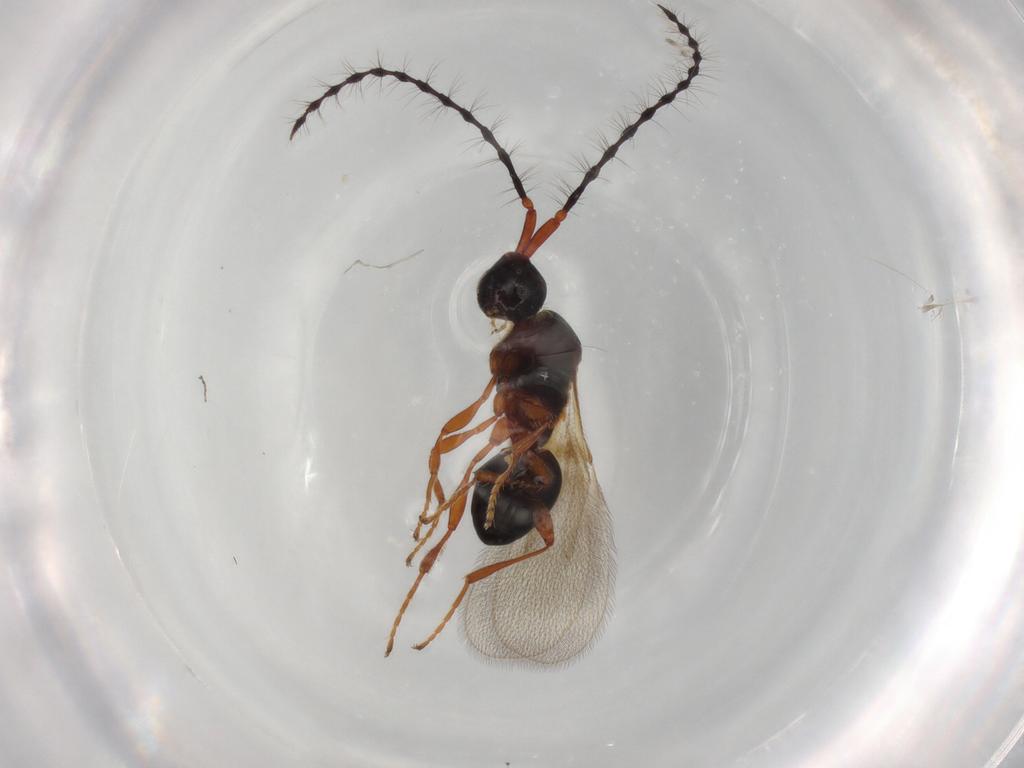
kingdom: Animalia
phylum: Arthropoda
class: Insecta
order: Hymenoptera
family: Diapriidae
